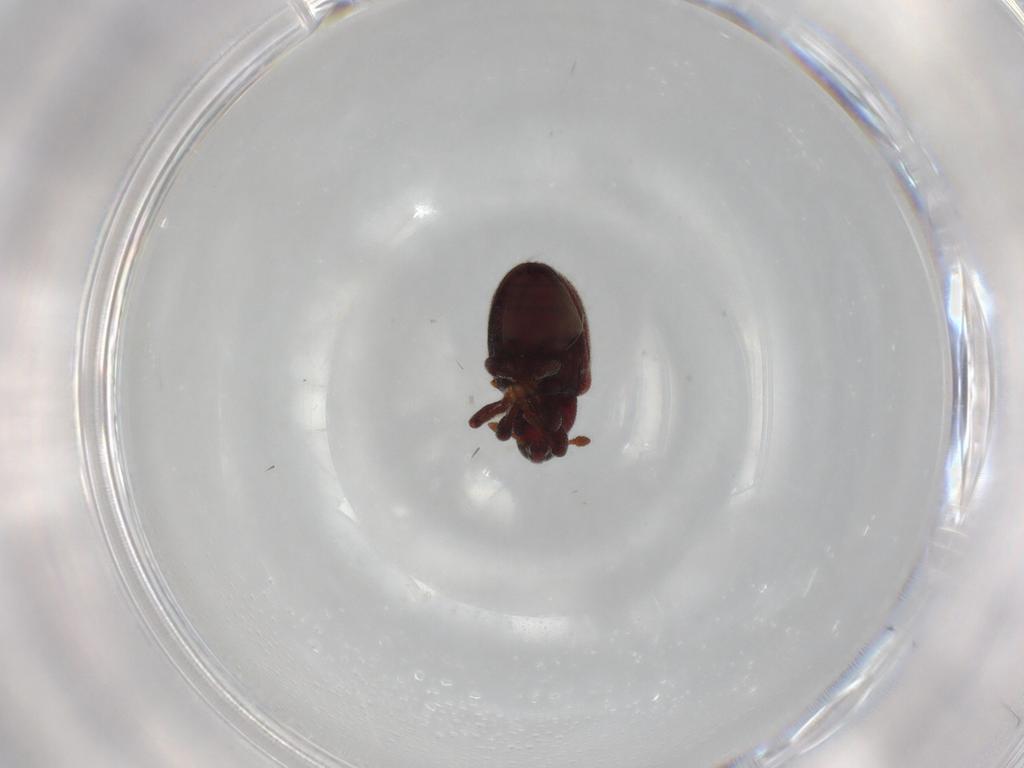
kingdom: Animalia
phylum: Arthropoda
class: Insecta
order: Coleoptera
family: Curculionidae
